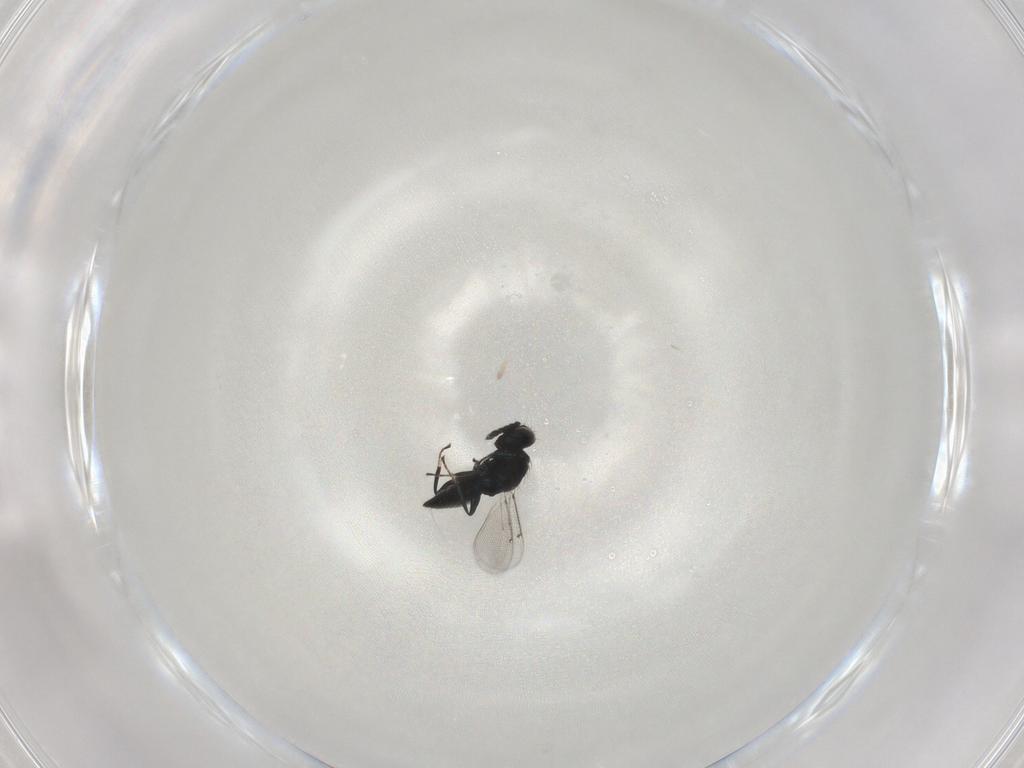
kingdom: Animalia
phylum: Arthropoda
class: Insecta
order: Hymenoptera
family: Eulophidae
